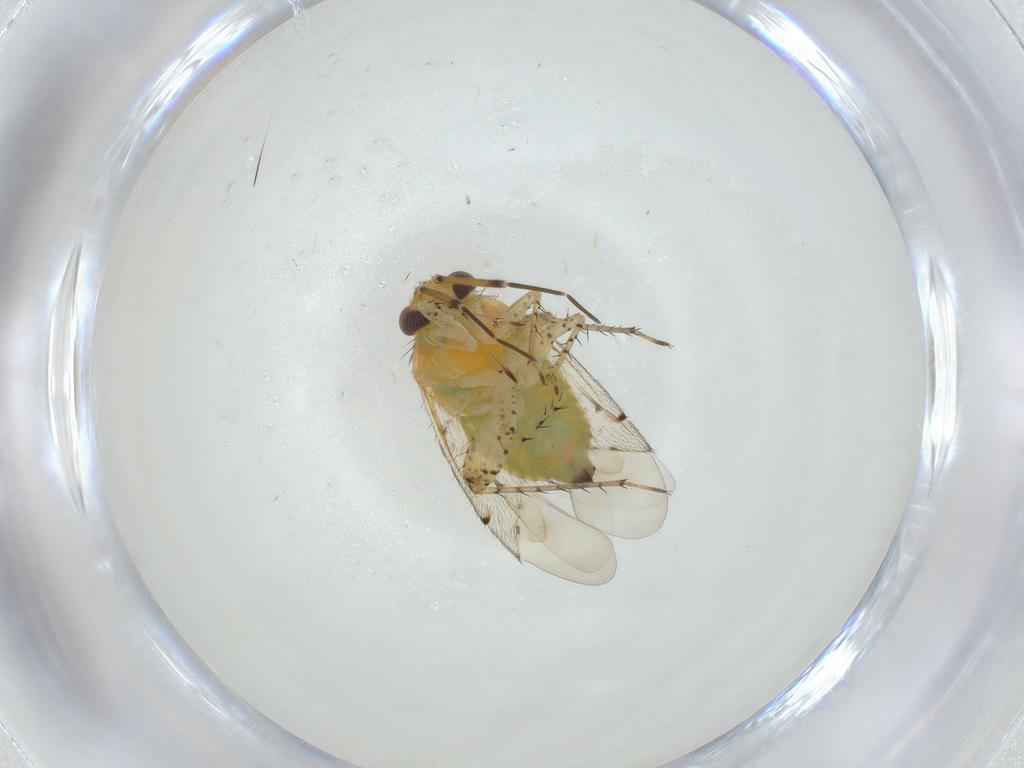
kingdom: Animalia
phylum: Arthropoda
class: Insecta
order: Hemiptera
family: Miridae
